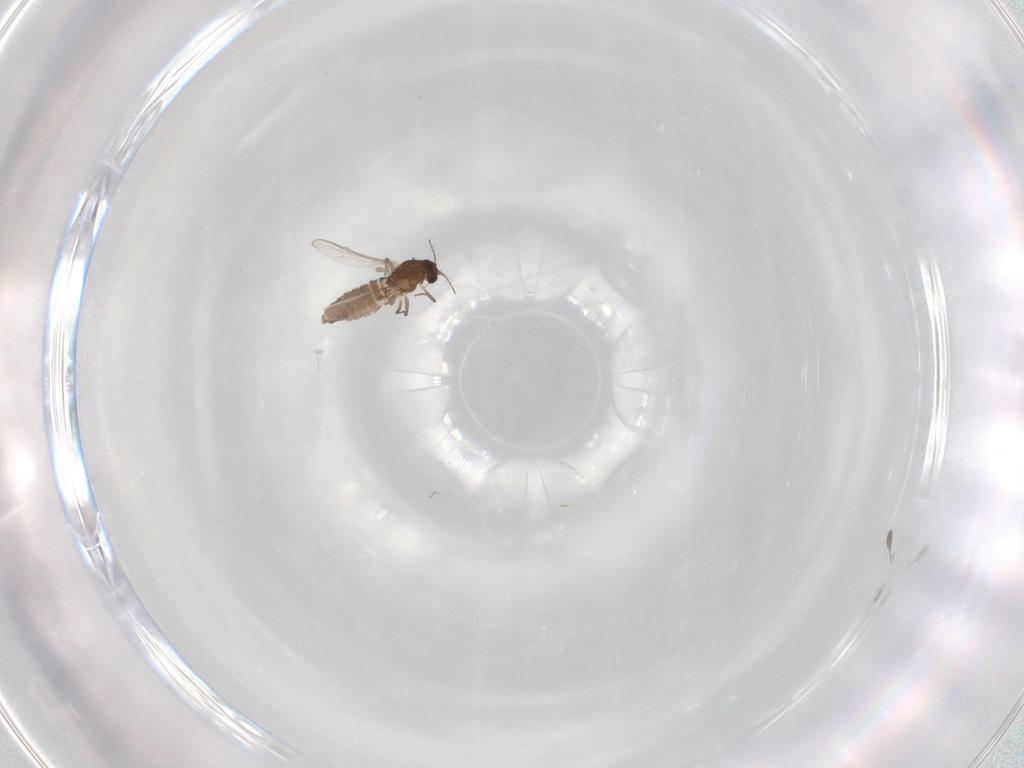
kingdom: Animalia
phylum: Arthropoda
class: Insecta
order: Diptera
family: Chironomidae
